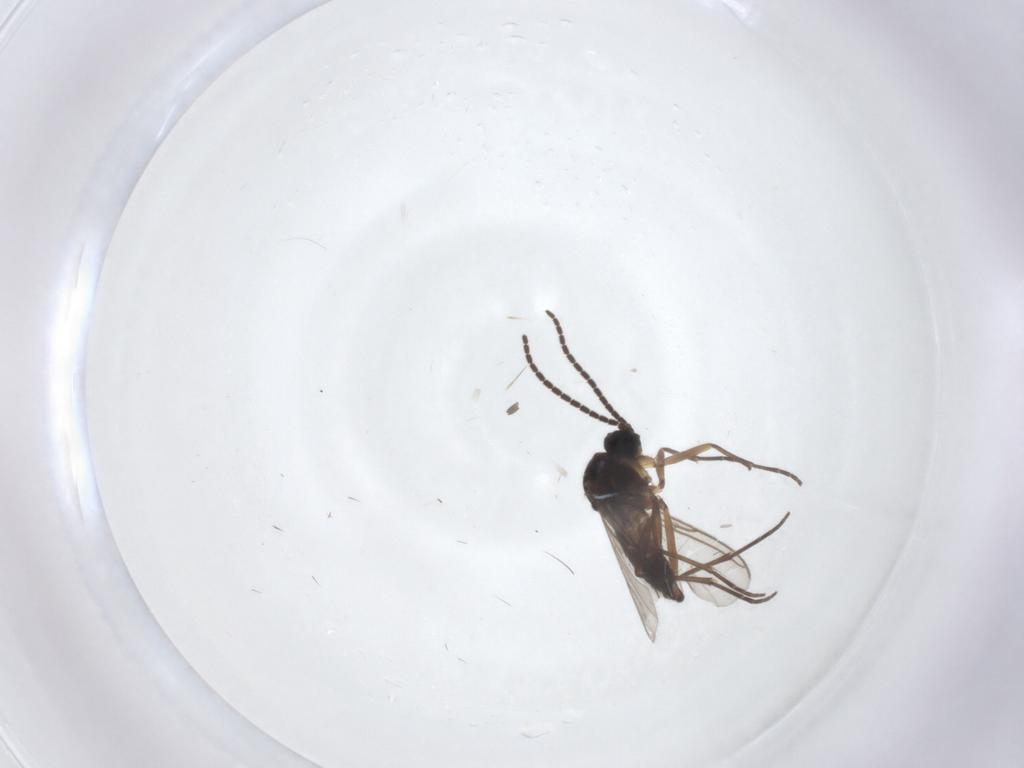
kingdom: Animalia
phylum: Arthropoda
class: Insecta
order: Diptera
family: Sciaridae
